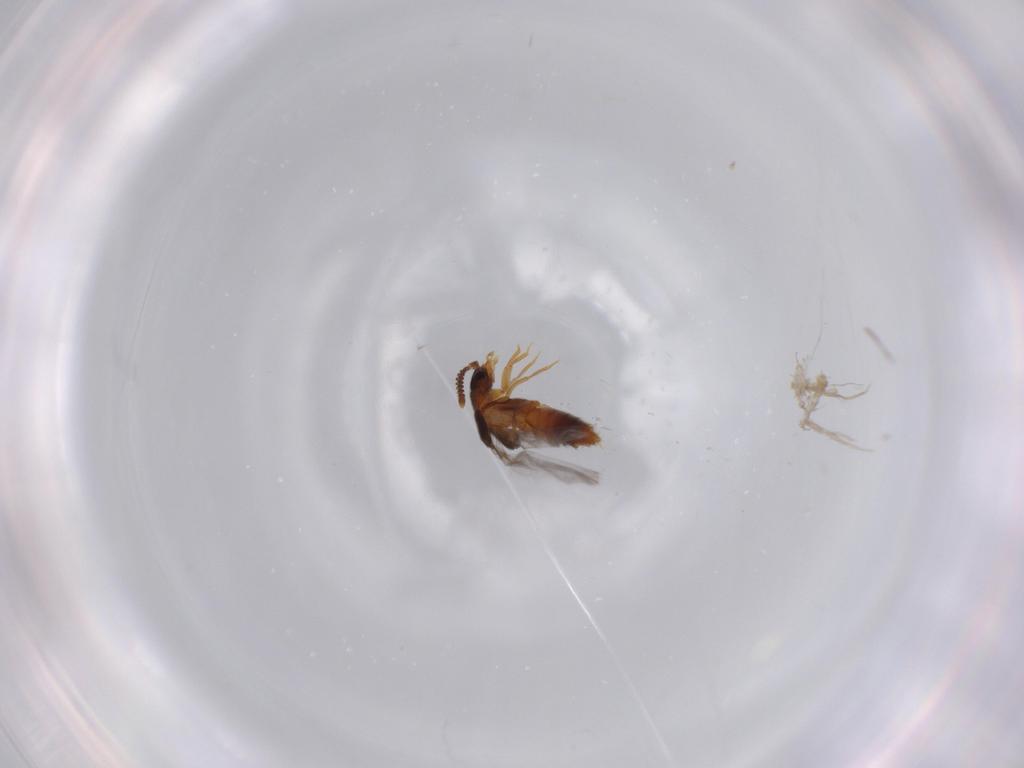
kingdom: Animalia
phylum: Arthropoda
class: Insecta
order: Coleoptera
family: Staphylinidae
